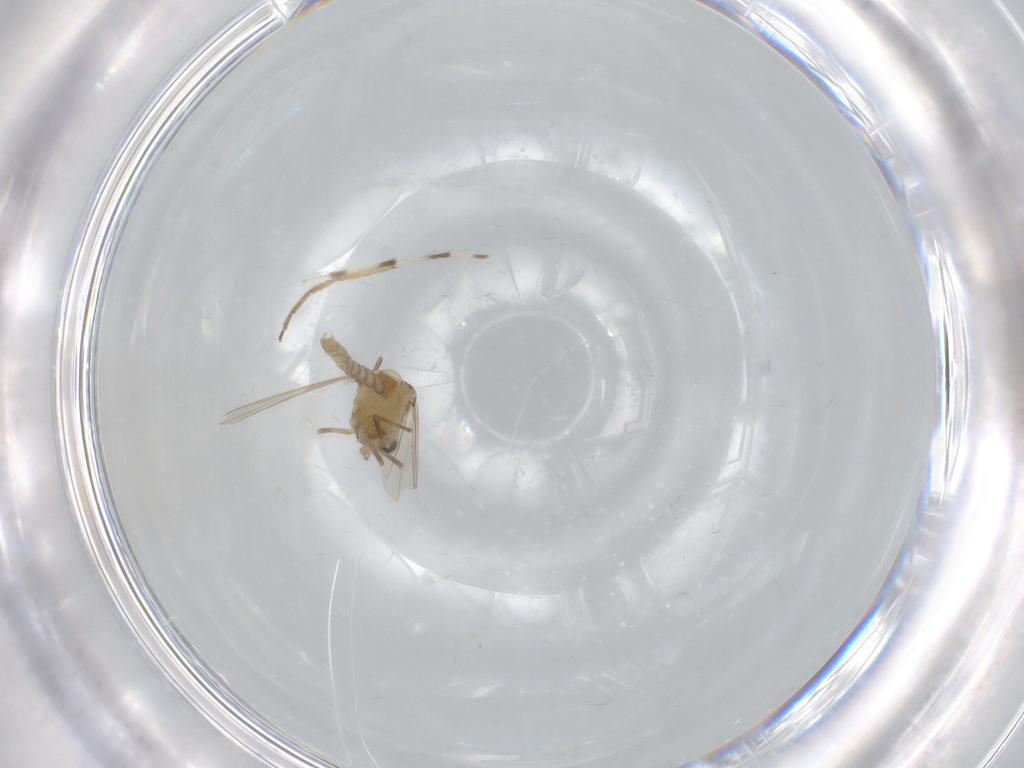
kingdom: Animalia
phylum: Arthropoda
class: Insecta
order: Diptera
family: Chironomidae
